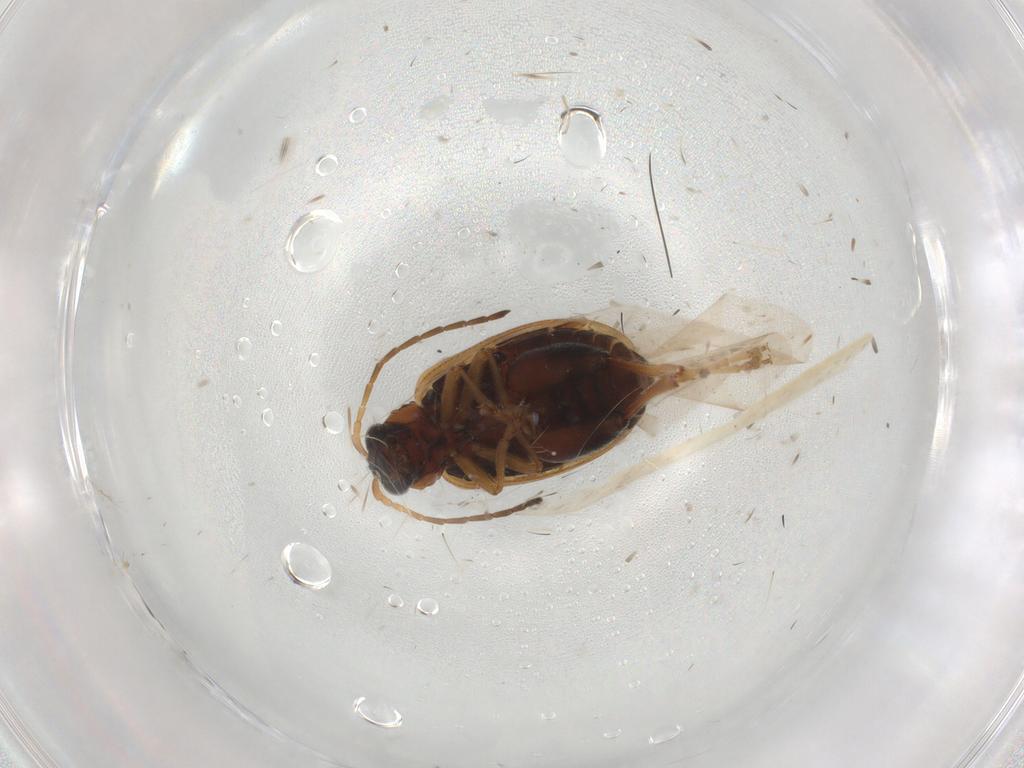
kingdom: Animalia
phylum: Arthropoda
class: Insecta
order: Coleoptera
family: Chrysomelidae
